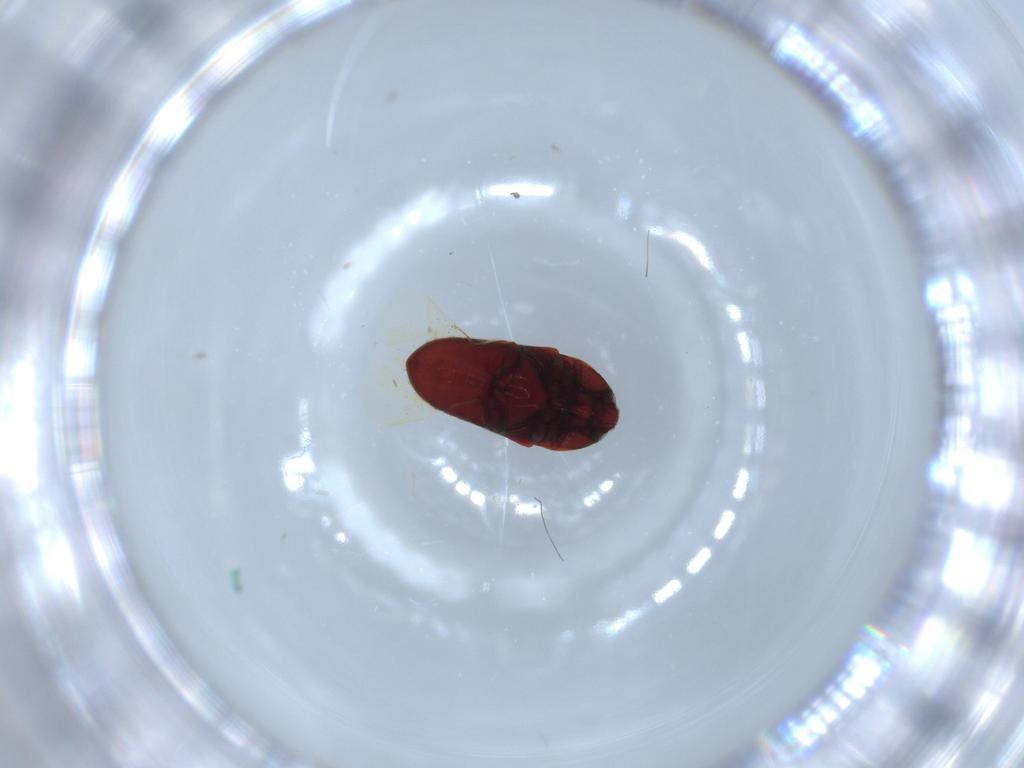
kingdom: Animalia
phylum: Arthropoda
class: Insecta
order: Coleoptera
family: Throscidae
